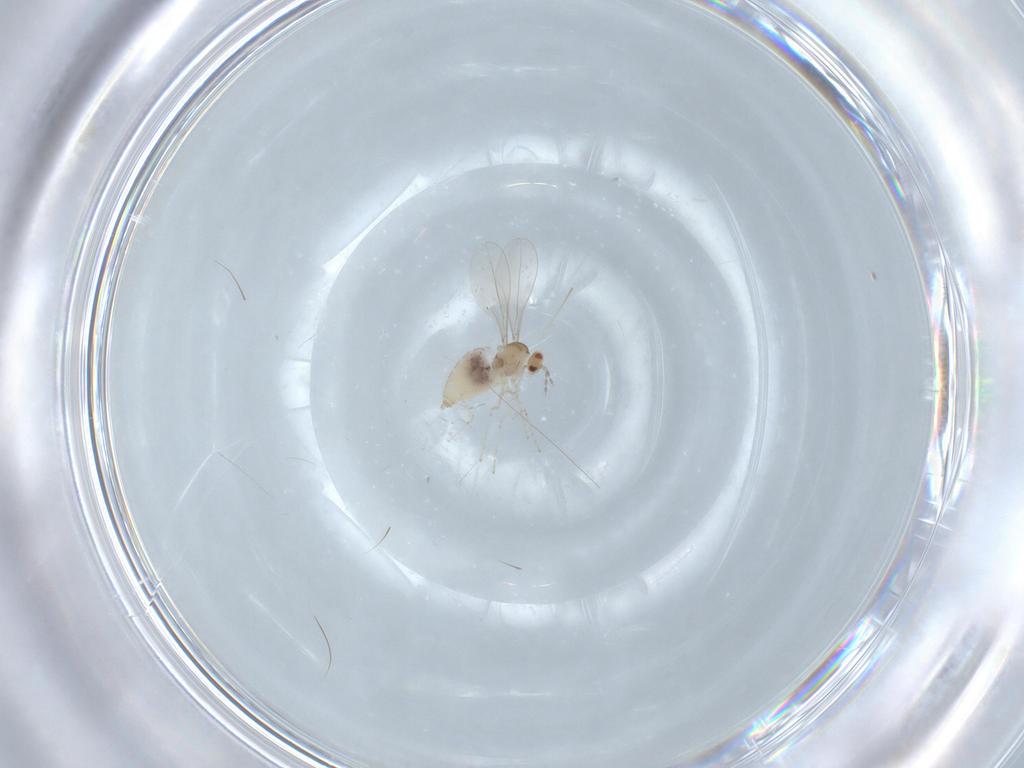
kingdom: Animalia
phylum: Arthropoda
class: Insecta
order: Diptera
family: Cecidomyiidae
